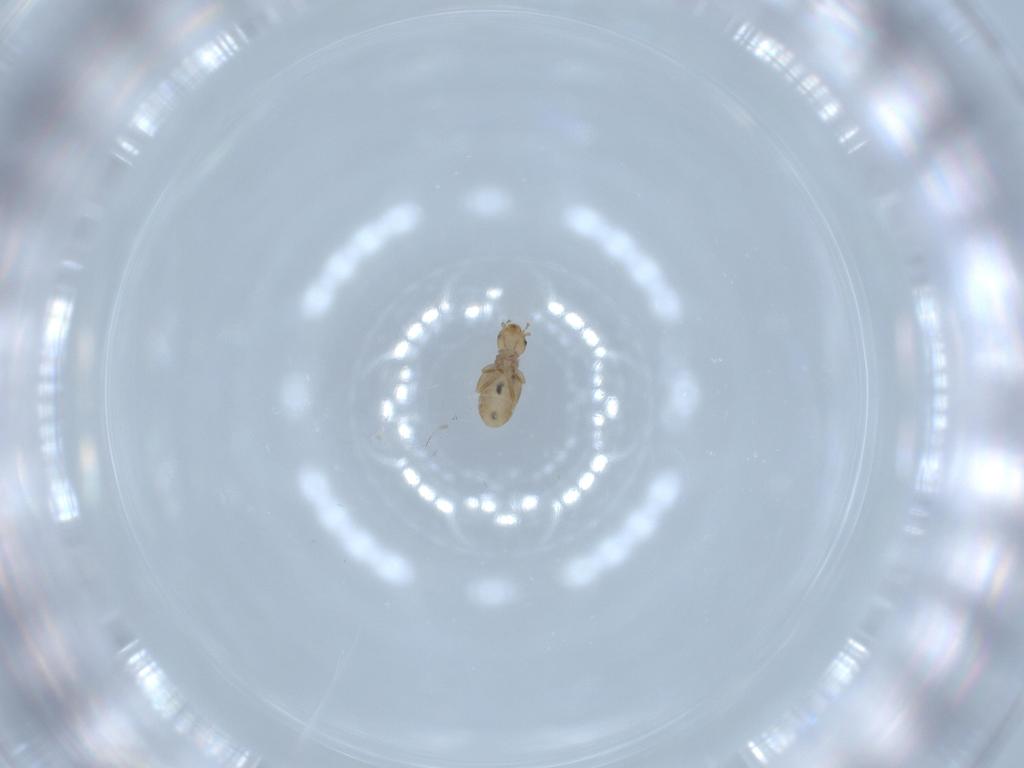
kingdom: Animalia
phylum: Arthropoda
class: Insecta
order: Psocodea
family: Liposcelididae
